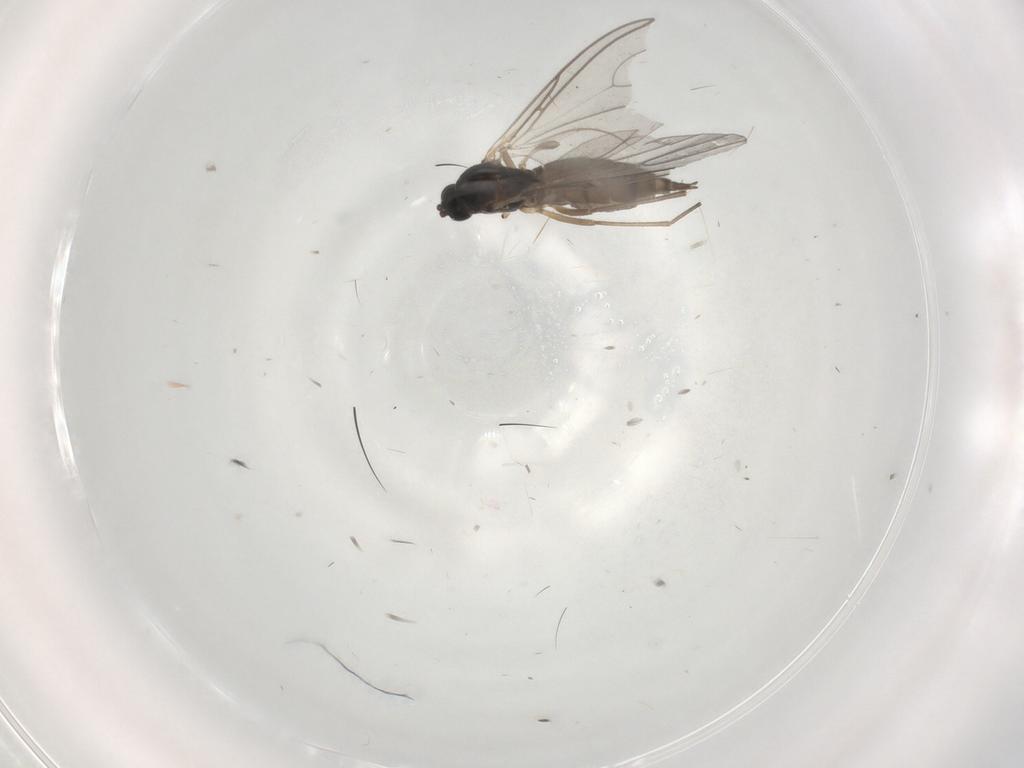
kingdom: Animalia
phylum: Arthropoda
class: Insecta
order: Diptera
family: Sciaridae
